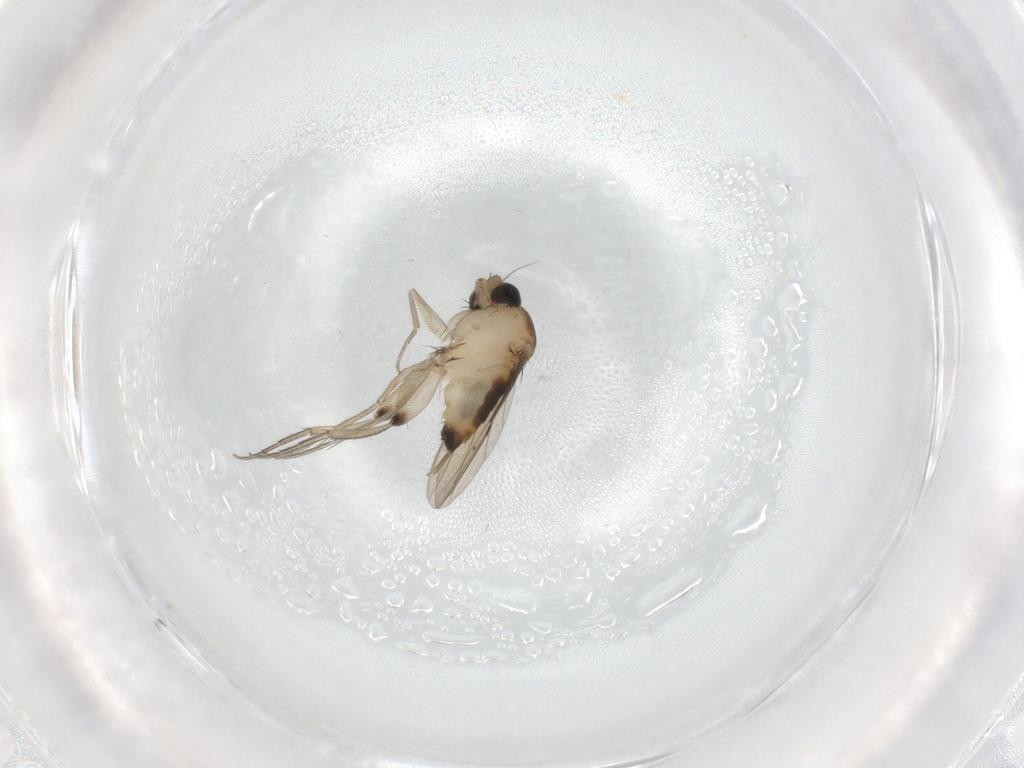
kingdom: Animalia
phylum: Arthropoda
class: Insecta
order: Diptera
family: Phoridae
